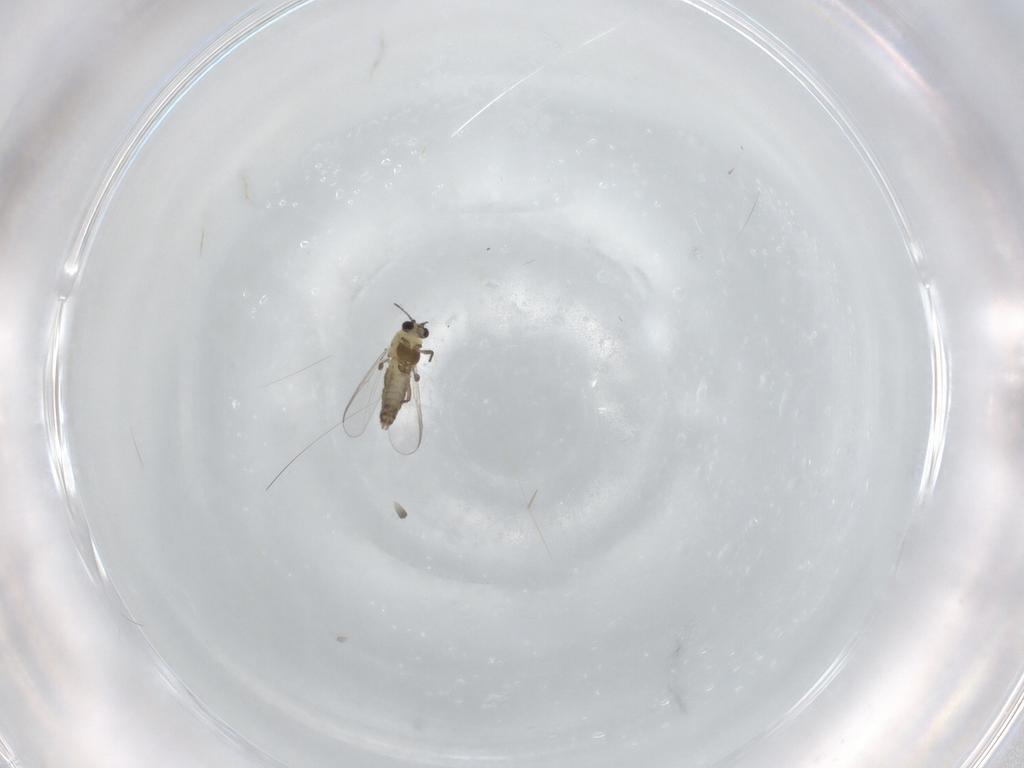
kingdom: Animalia
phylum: Arthropoda
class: Insecta
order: Diptera
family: Chironomidae
